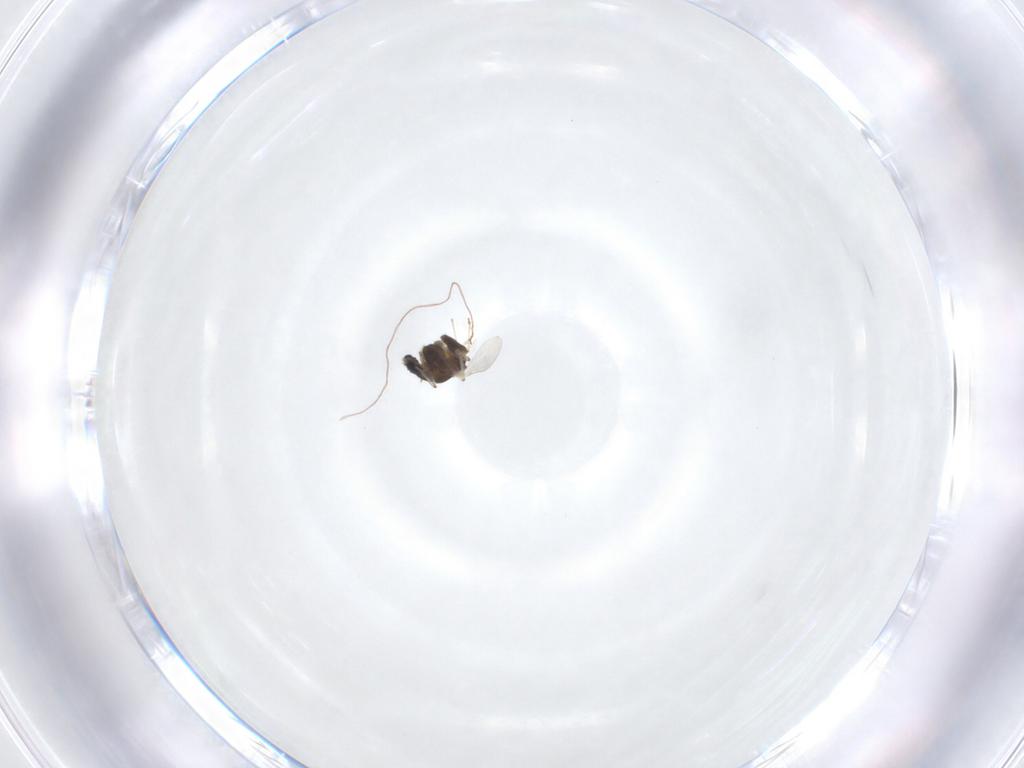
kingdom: Animalia
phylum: Arthropoda
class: Insecta
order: Diptera
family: Chironomidae
